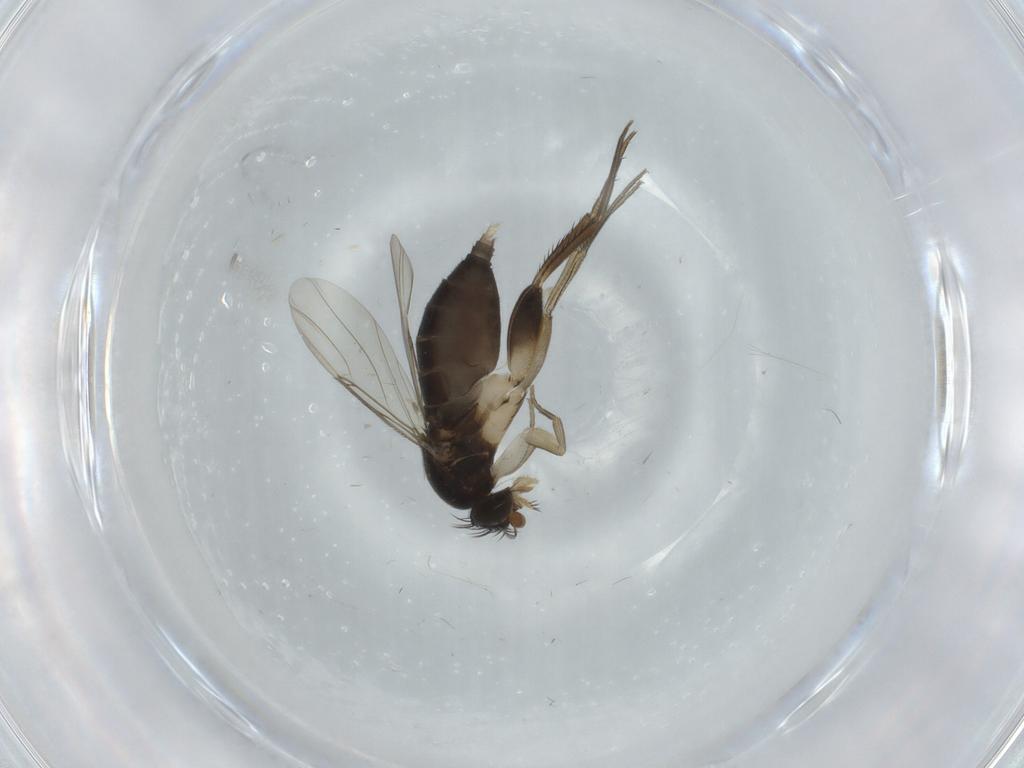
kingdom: Animalia
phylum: Arthropoda
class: Insecta
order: Diptera
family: Phoridae
